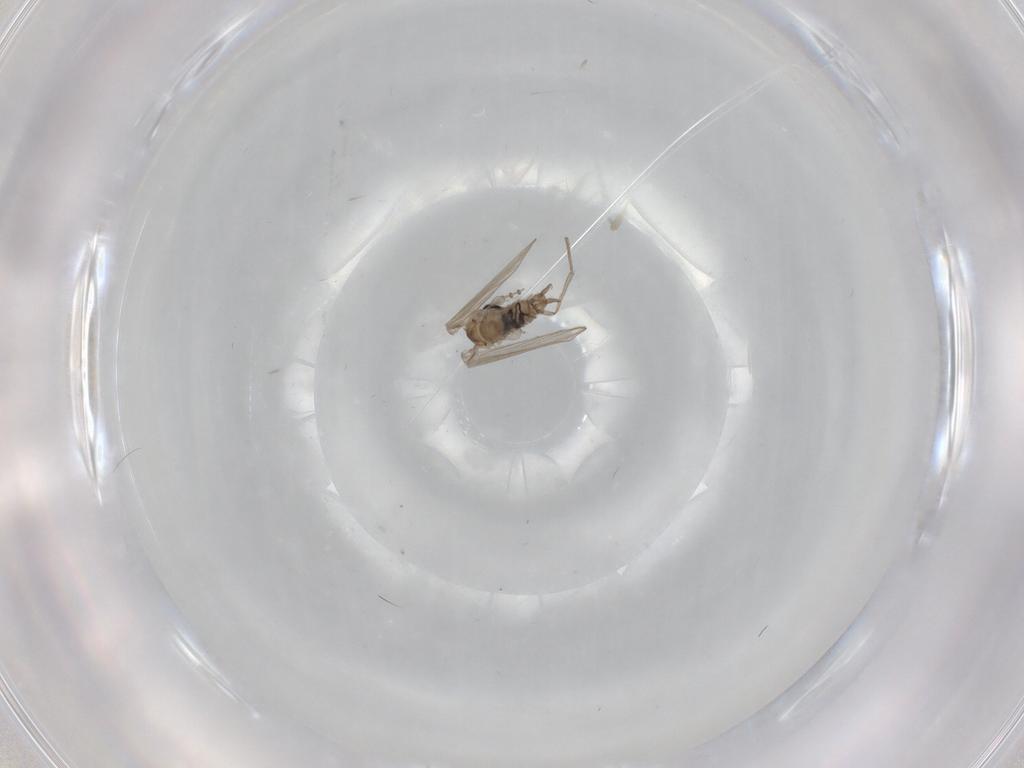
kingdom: Animalia
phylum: Arthropoda
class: Insecta
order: Diptera
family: Psychodidae
